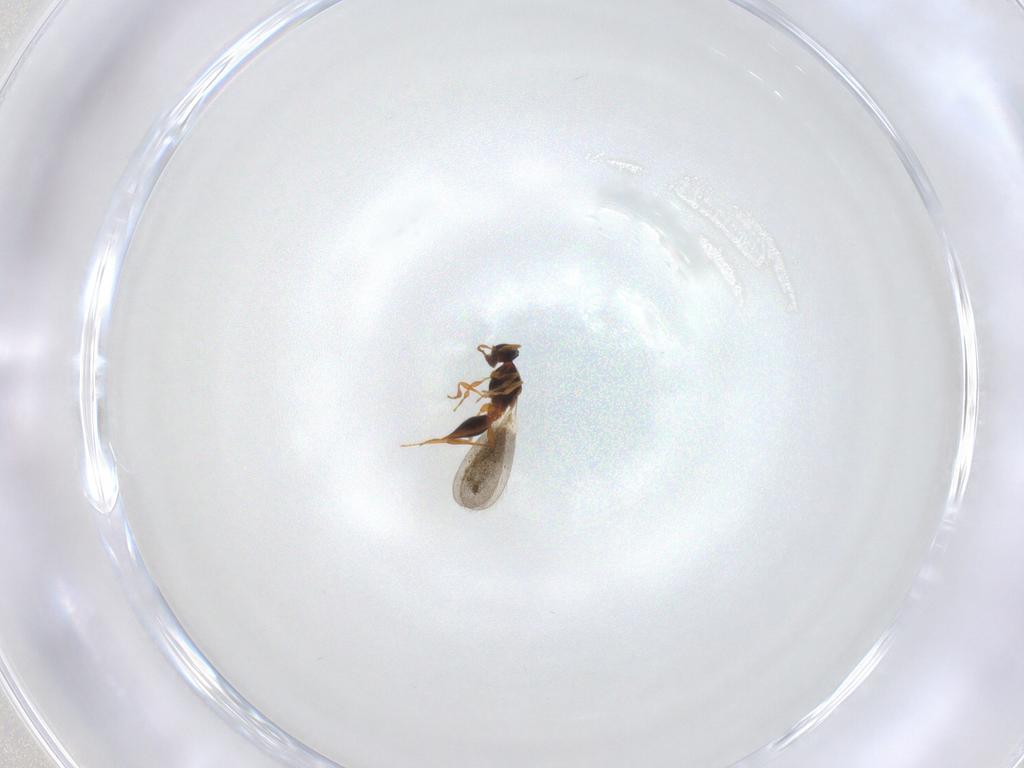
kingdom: Animalia
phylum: Arthropoda
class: Insecta
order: Hymenoptera
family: Platygastridae
